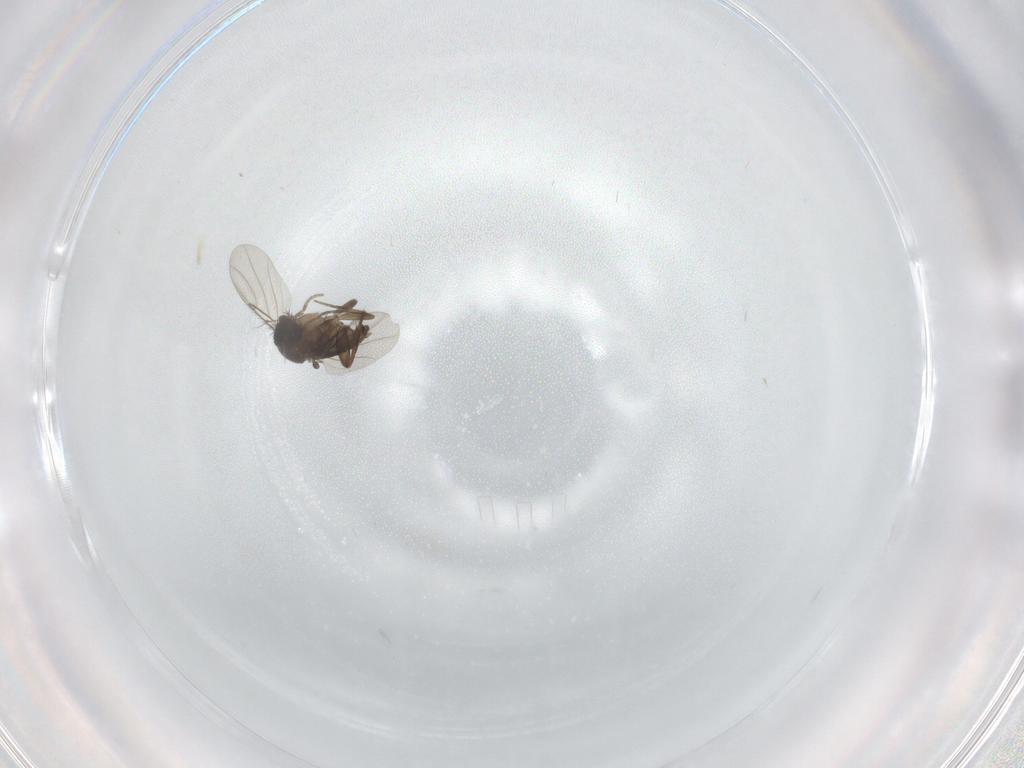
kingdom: Animalia
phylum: Arthropoda
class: Insecta
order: Diptera
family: Phoridae
